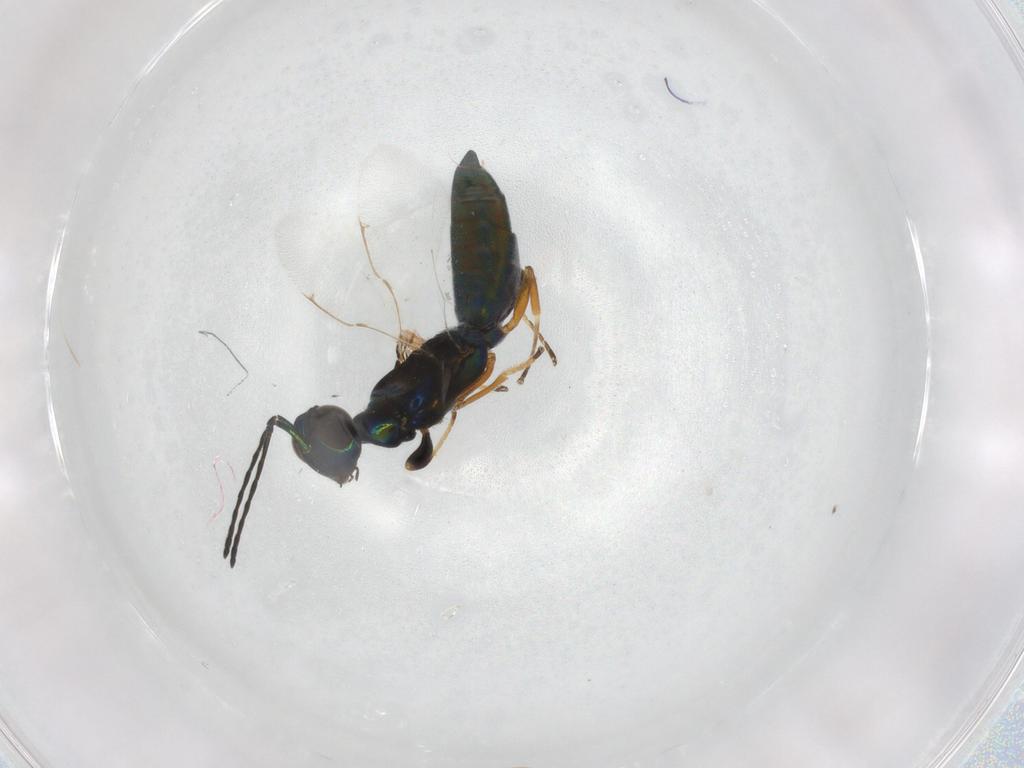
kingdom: Animalia
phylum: Arthropoda
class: Insecta
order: Hymenoptera
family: Eupelmidae
